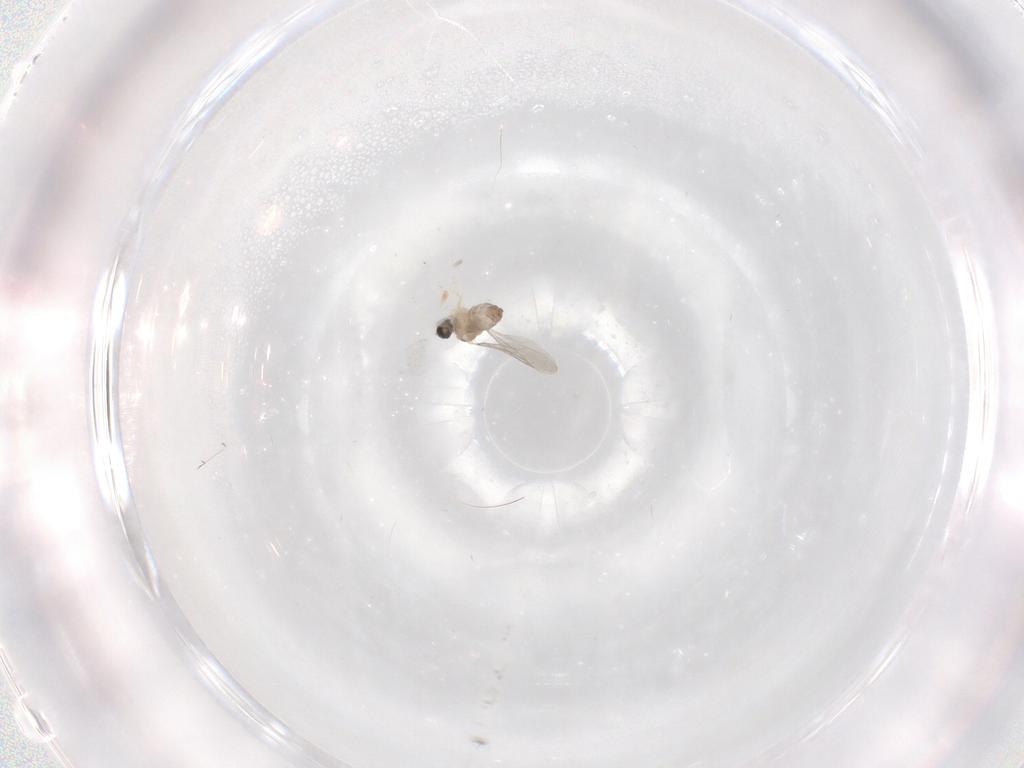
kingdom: Animalia
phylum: Arthropoda
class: Insecta
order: Diptera
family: Cecidomyiidae
